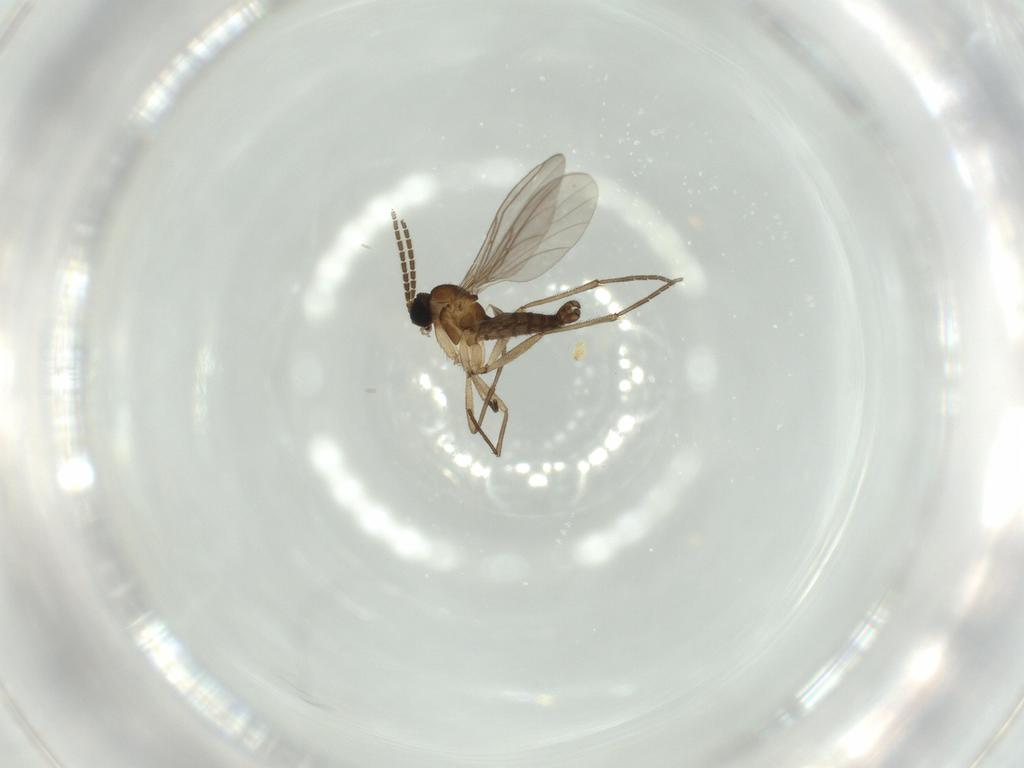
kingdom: Animalia
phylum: Arthropoda
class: Insecta
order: Diptera
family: Sciaridae
